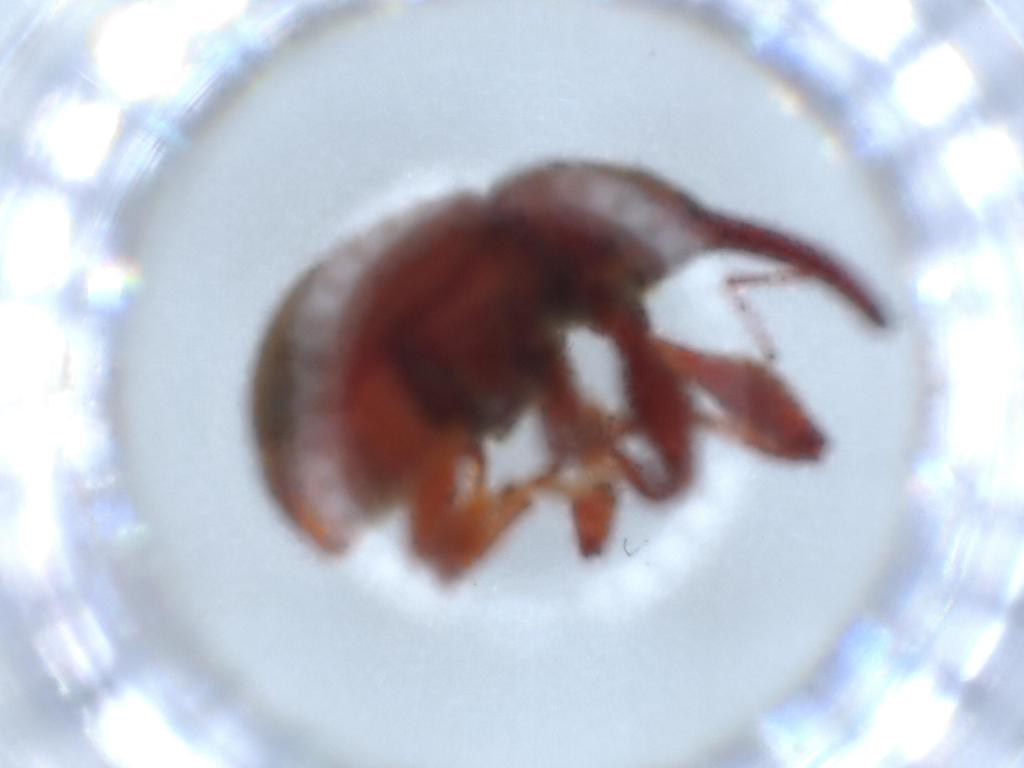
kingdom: Animalia
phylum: Arthropoda
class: Insecta
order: Coleoptera
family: Curculionidae
